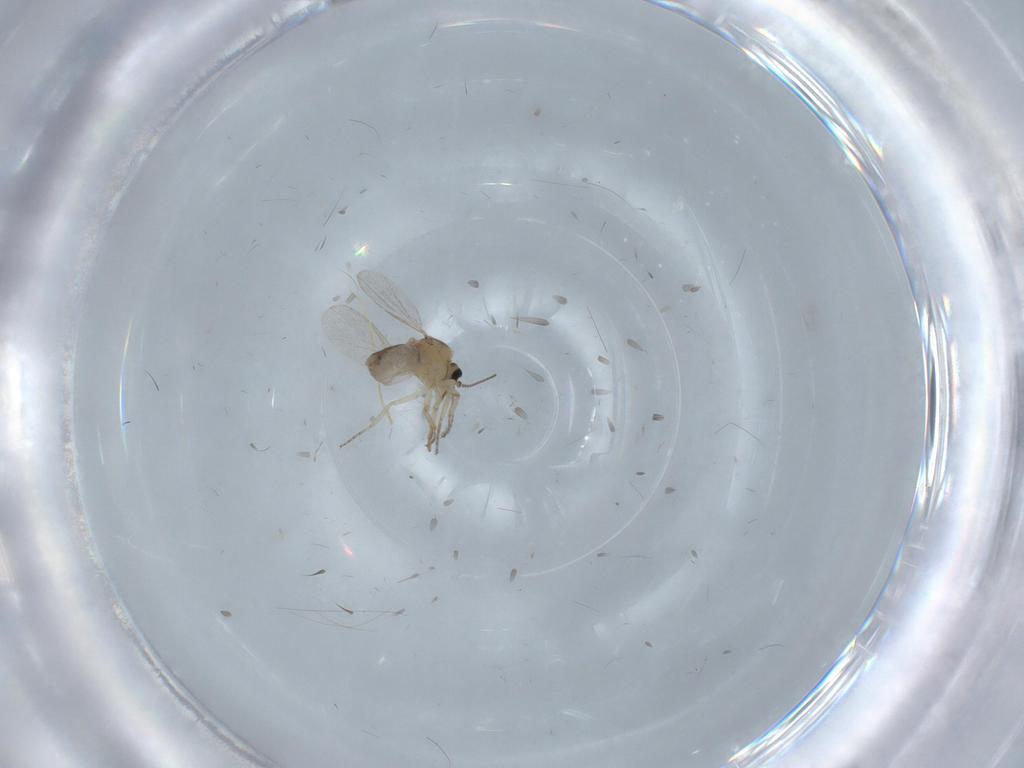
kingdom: Animalia
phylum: Arthropoda
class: Insecta
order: Diptera
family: Ceratopogonidae
